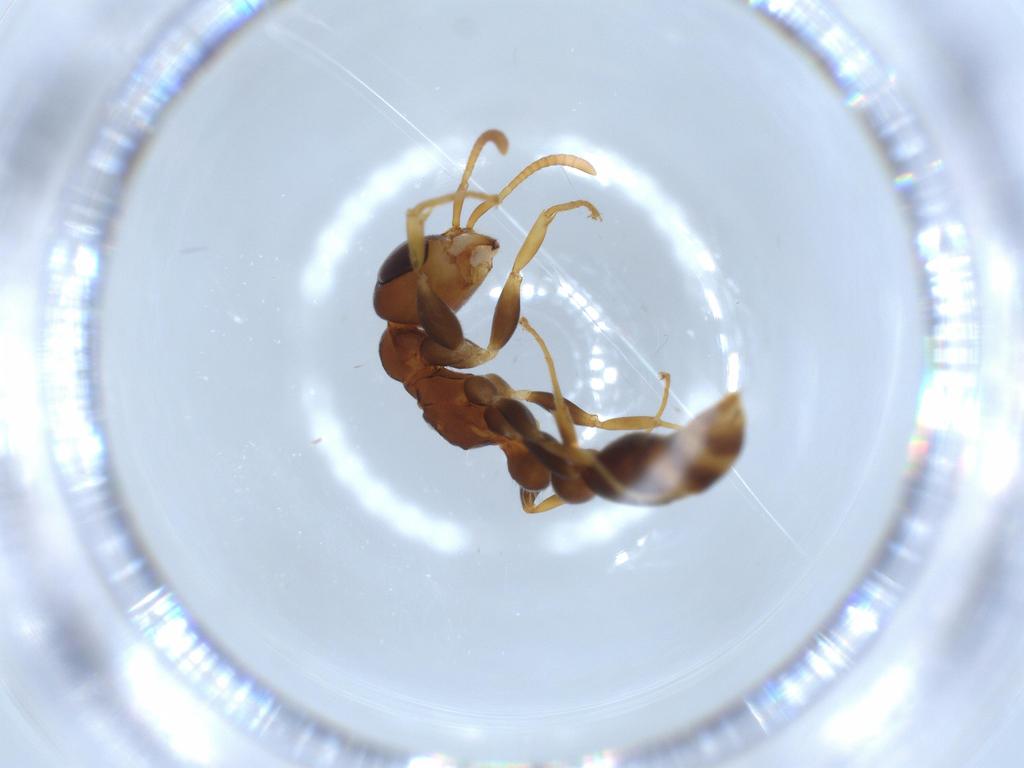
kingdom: Animalia
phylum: Arthropoda
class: Insecta
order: Hymenoptera
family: Formicidae
